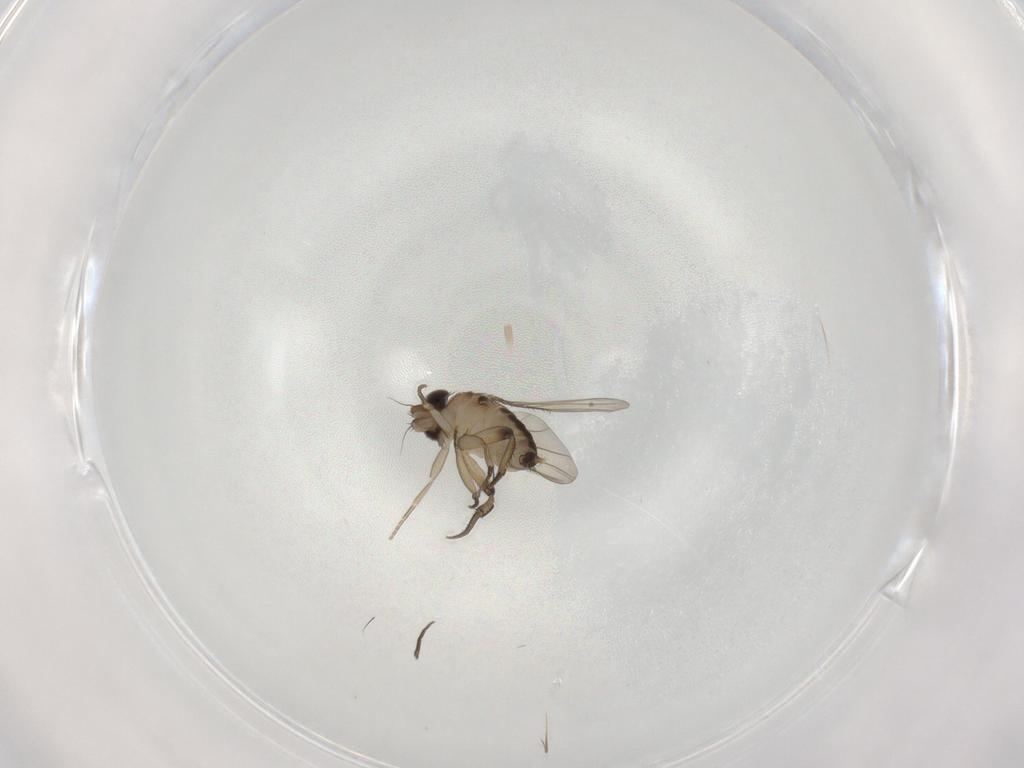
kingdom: Animalia
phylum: Arthropoda
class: Insecta
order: Diptera
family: Phoridae
